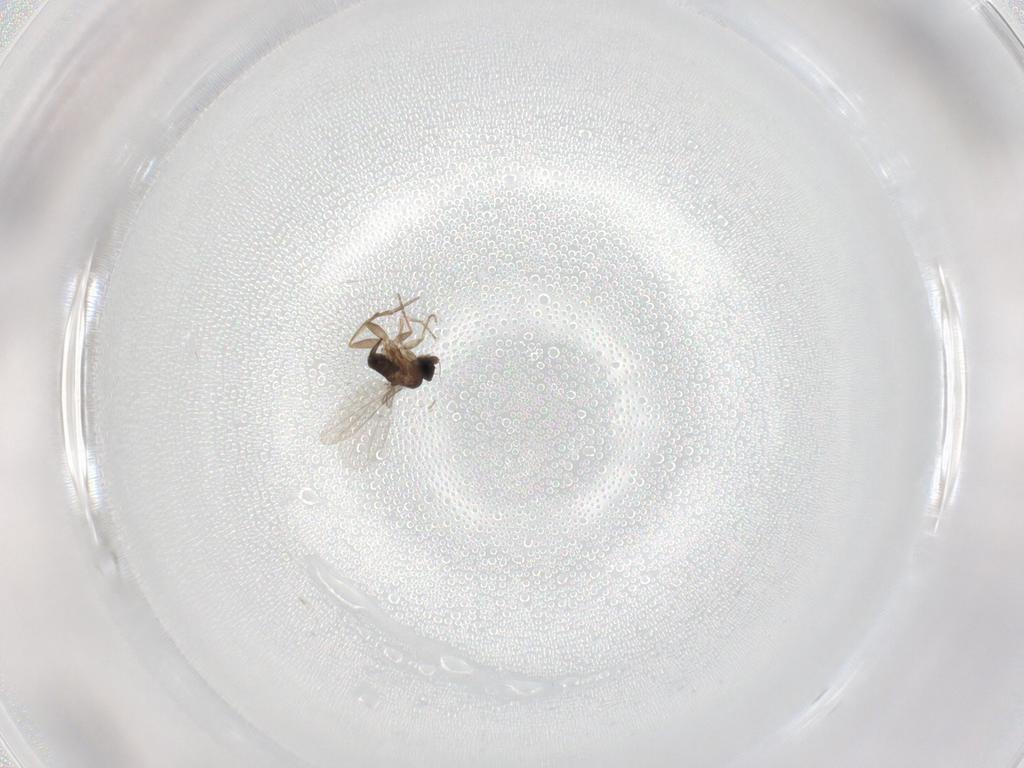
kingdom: Animalia
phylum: Arthropoda
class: Insecta
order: Diptera
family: Phoridae
